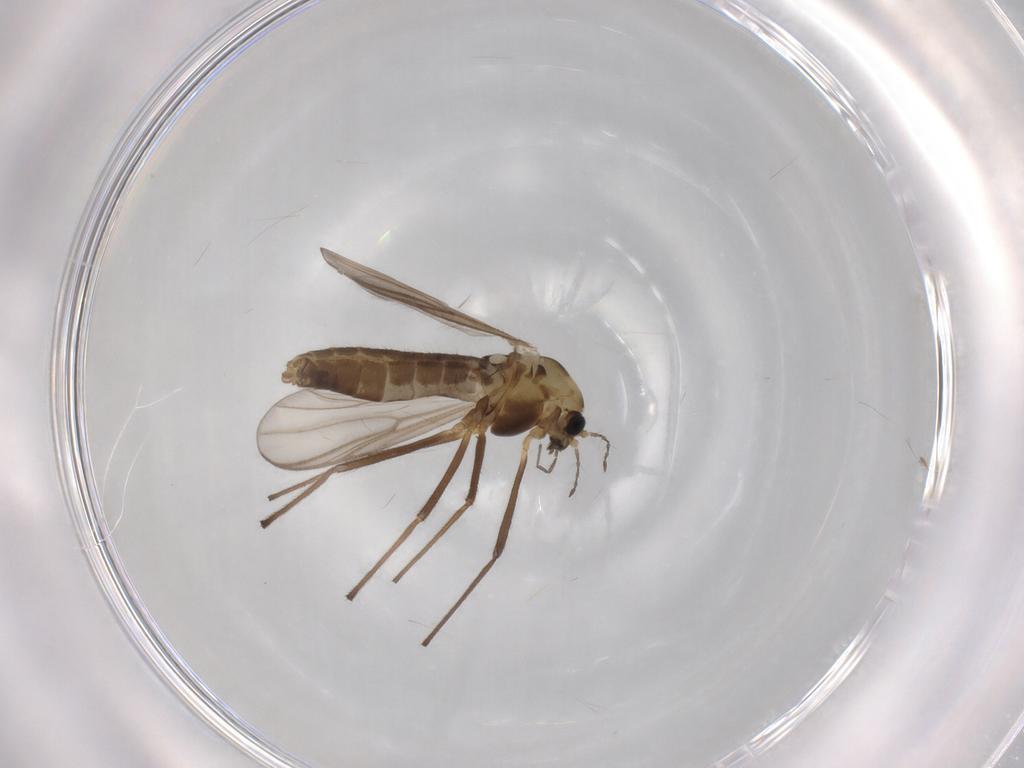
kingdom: Animalia
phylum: Arthropoda
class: Insecta
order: Diptera
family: Chironomidae
